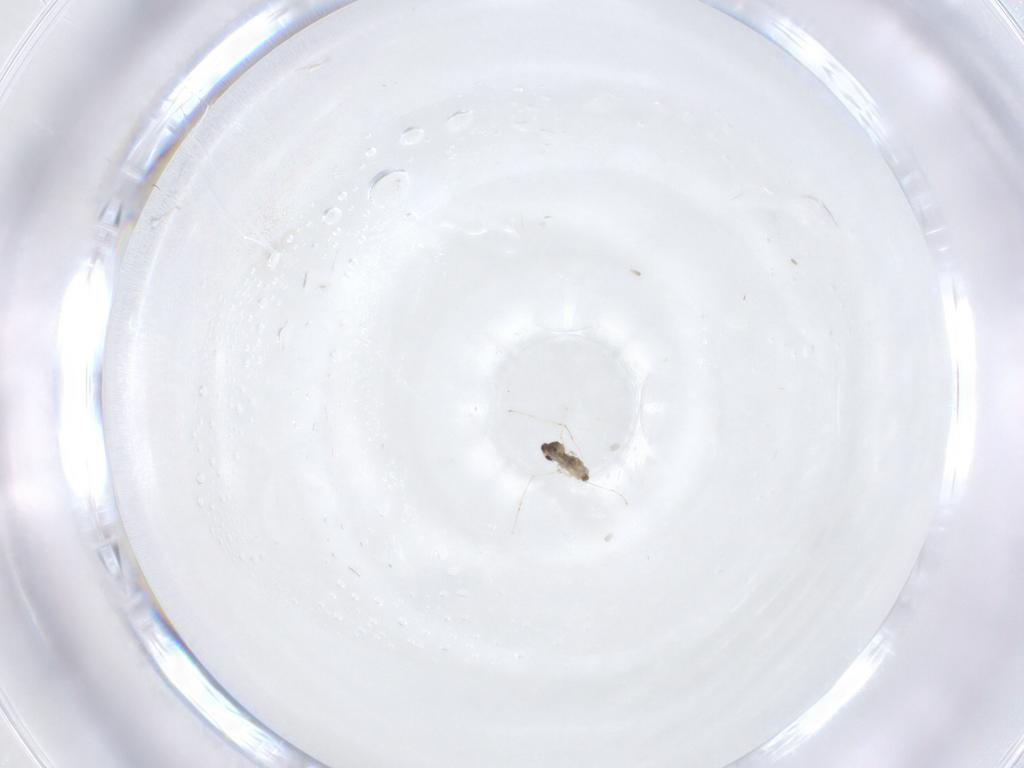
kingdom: Animalia
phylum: Arthropoda
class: Insecta
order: Diptera
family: Cecidomyiidae
